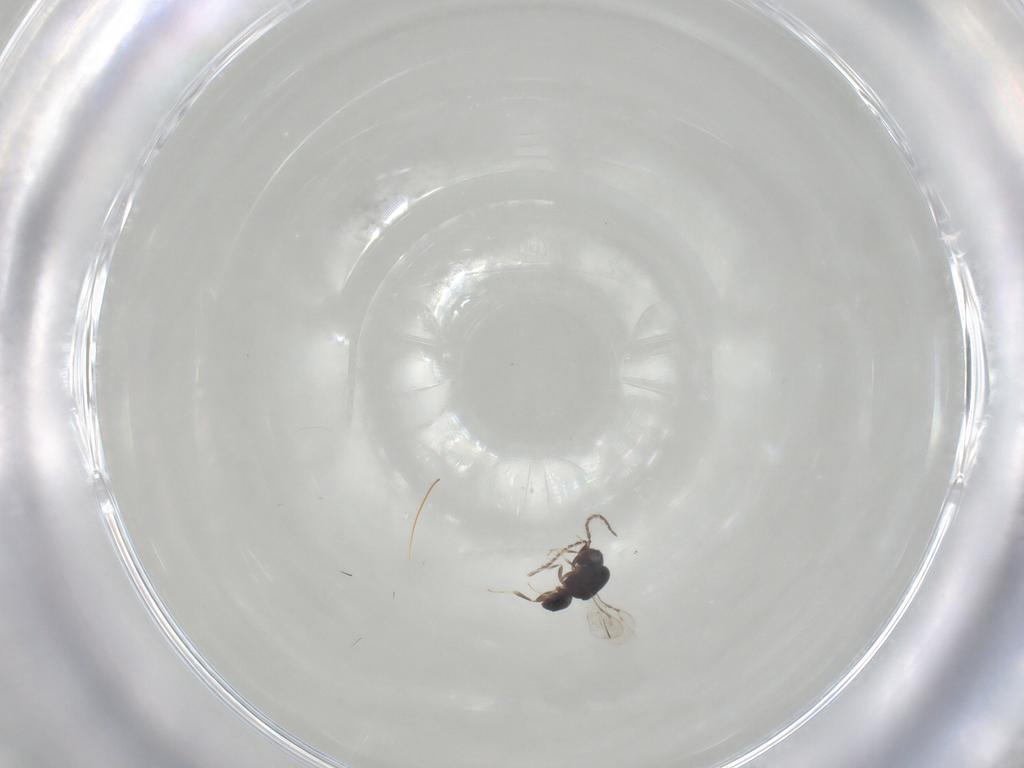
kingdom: Animalia
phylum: Arthropoda
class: Insecta
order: Hymenoptera
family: Ceraphronidae
